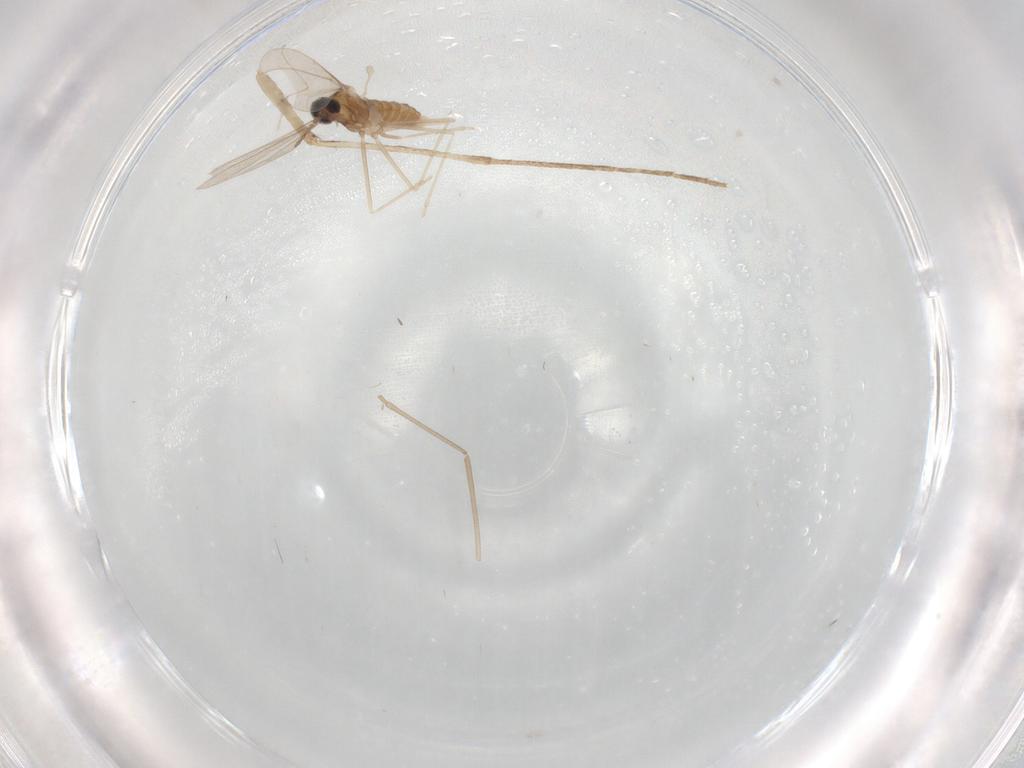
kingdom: Animalia
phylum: Arthropoda
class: Insecta
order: Diptera
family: Cecidomyiidae
